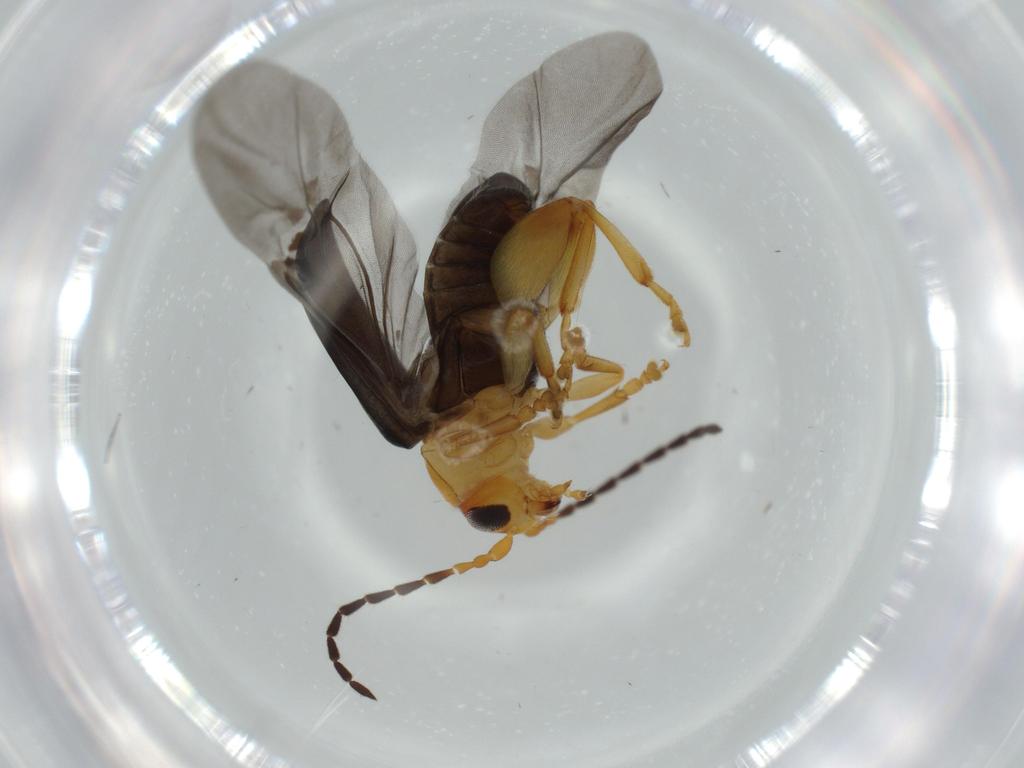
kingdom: Animalia
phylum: Arthropoda
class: Insecta
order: Coleoptera
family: Chrysomelidae
